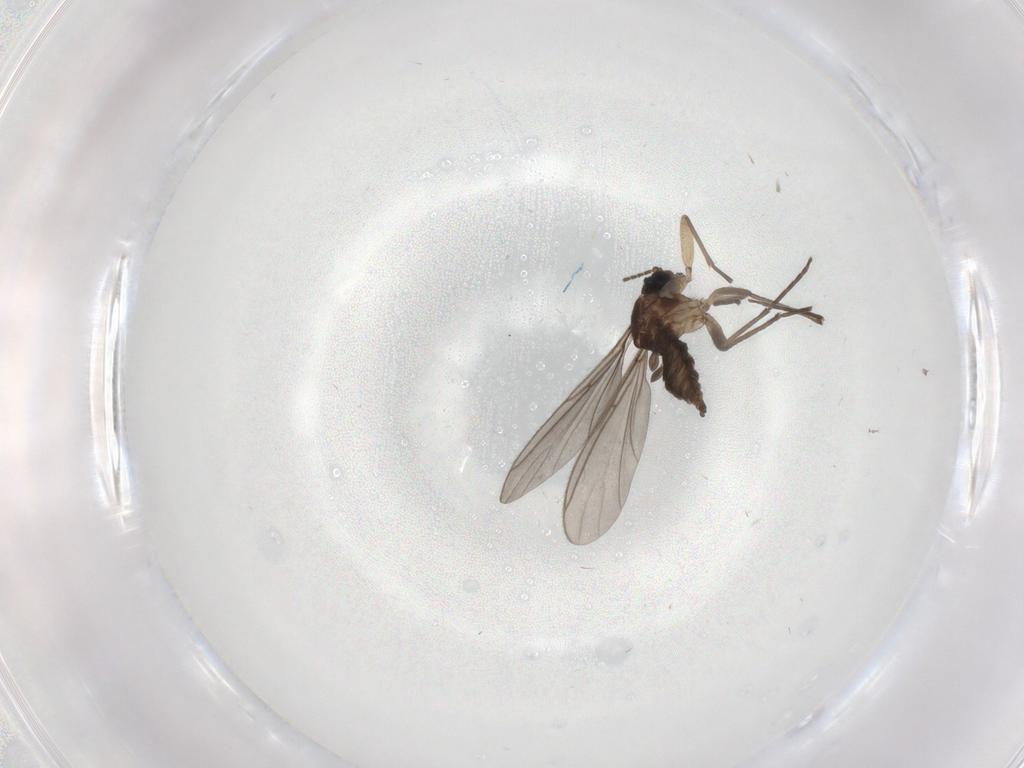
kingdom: Animalia
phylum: Arthropoda
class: Insecta
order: Diptera
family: Sciaridae
